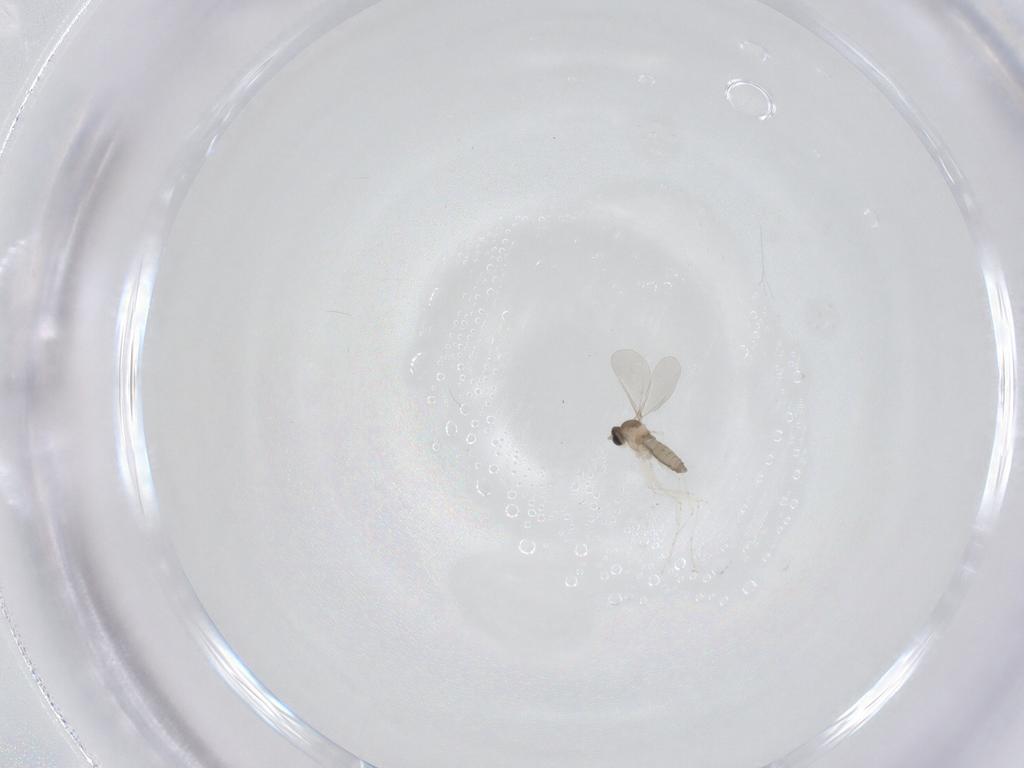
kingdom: Animalia
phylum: Arthropoda
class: Insecta
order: Diptera
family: Cecidomyiidae
